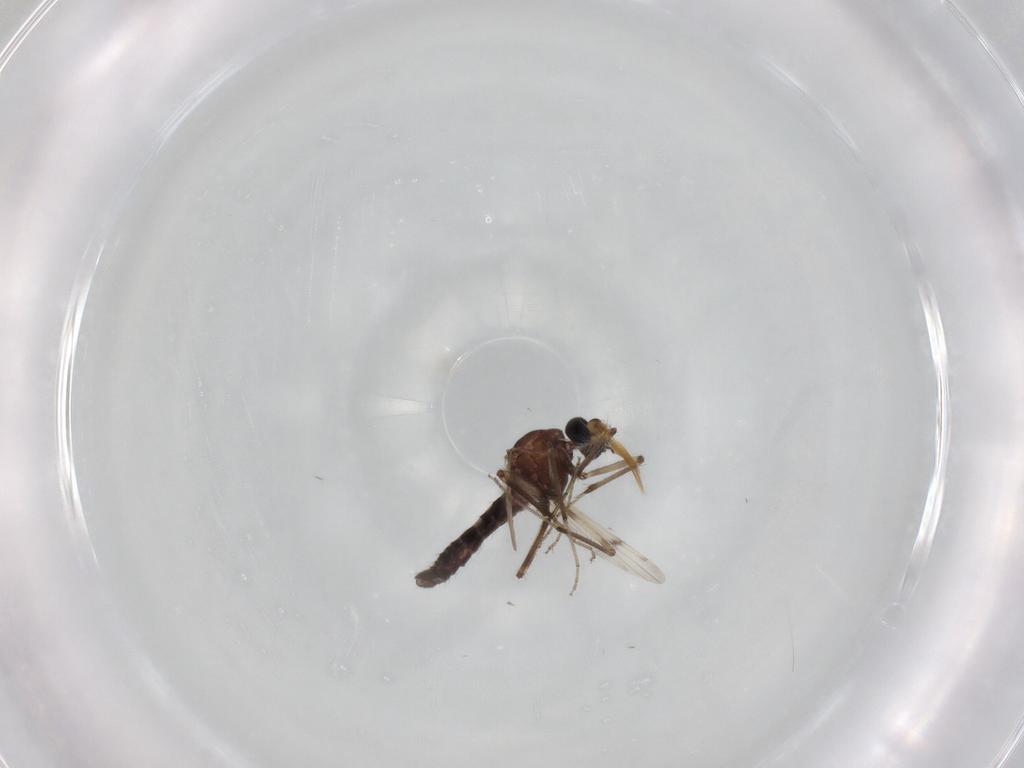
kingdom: Animalia
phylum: Arthropoda
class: Insecta
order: Diptera
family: Ceratopogonidae
